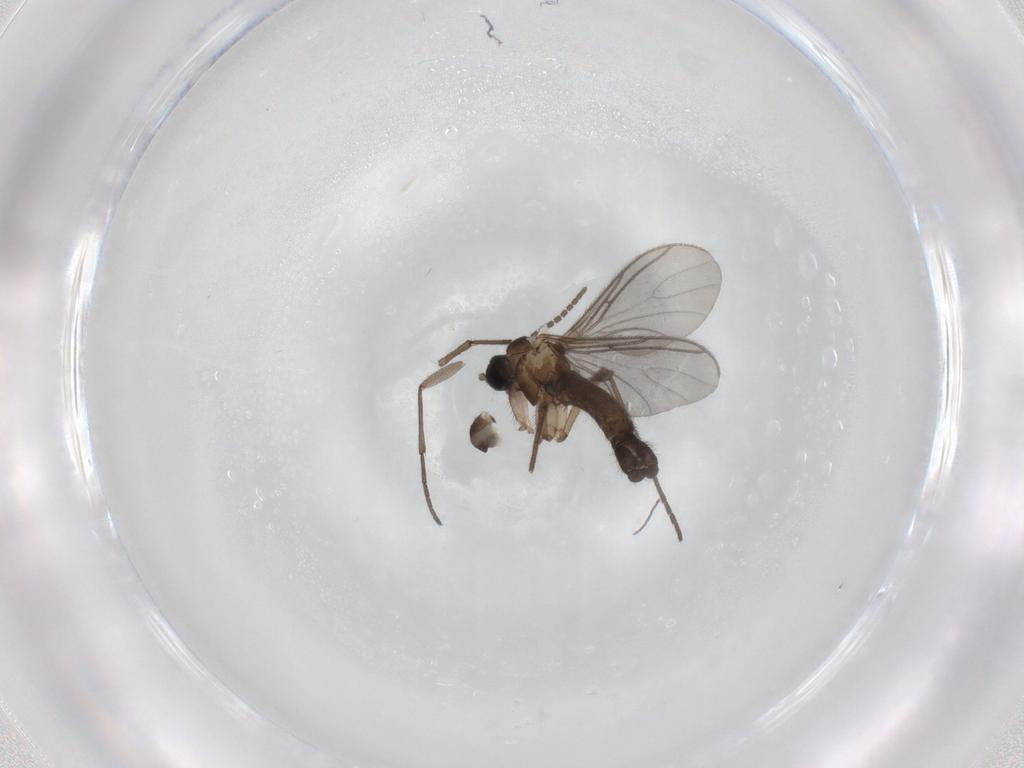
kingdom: Animalia
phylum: Arthropoda
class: Insecta
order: Diptera
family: Sciaridae
